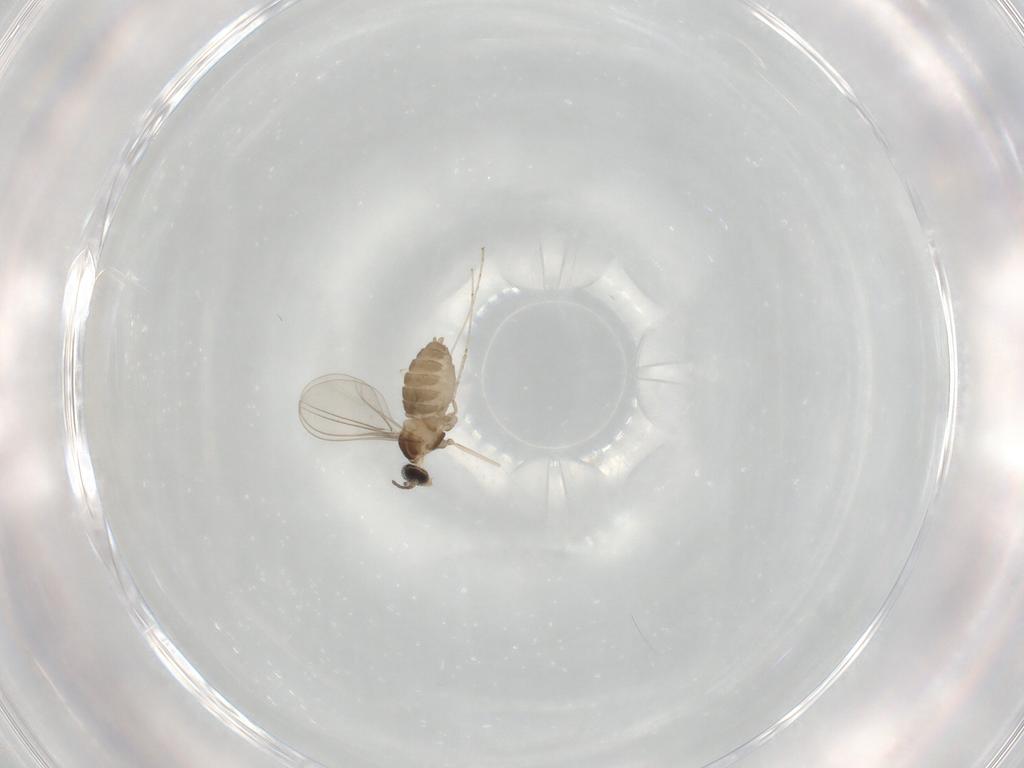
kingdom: Animalia
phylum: Arthropoda
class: Insecta
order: Diptera
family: Cecidomyiidae
